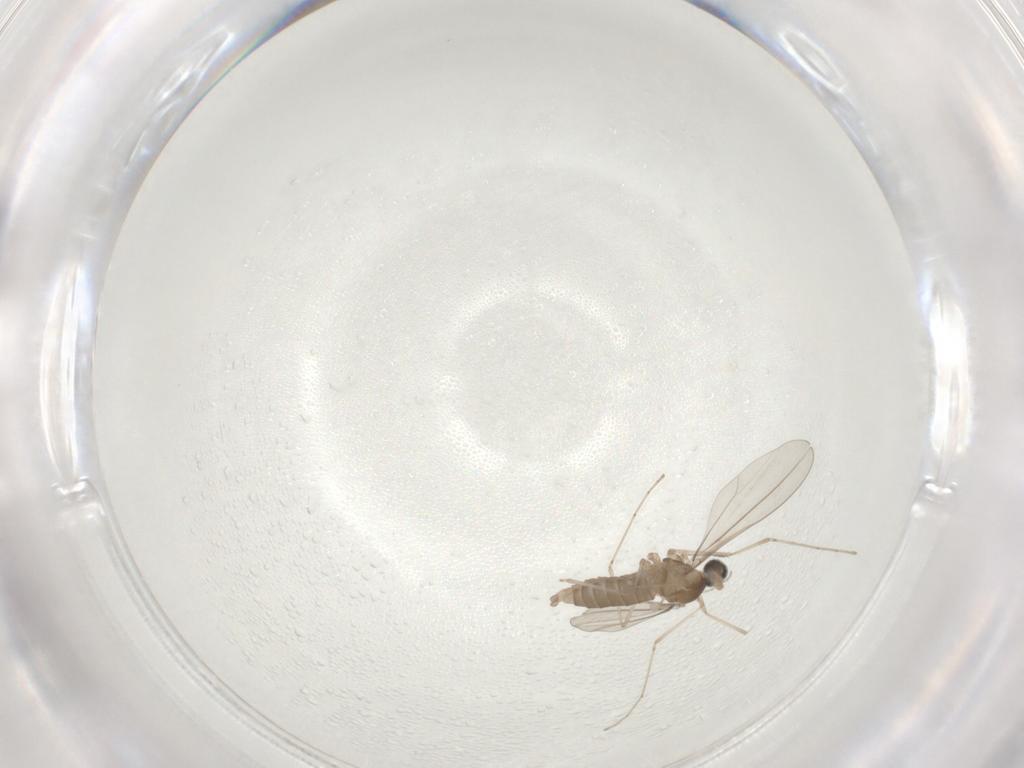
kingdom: Animalia
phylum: Arthropoda
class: Insecta
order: Diptera
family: Cecidomyiidae
